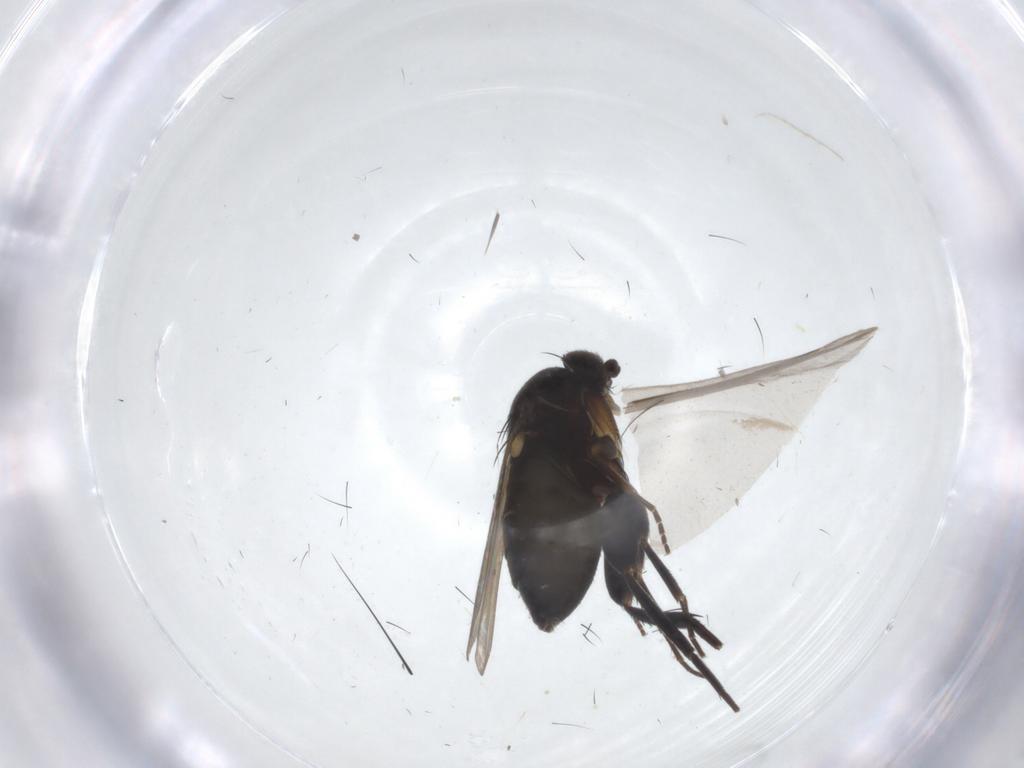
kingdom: Animalia
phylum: Arthropoda
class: Insecta
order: Diptera
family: Phoridae
